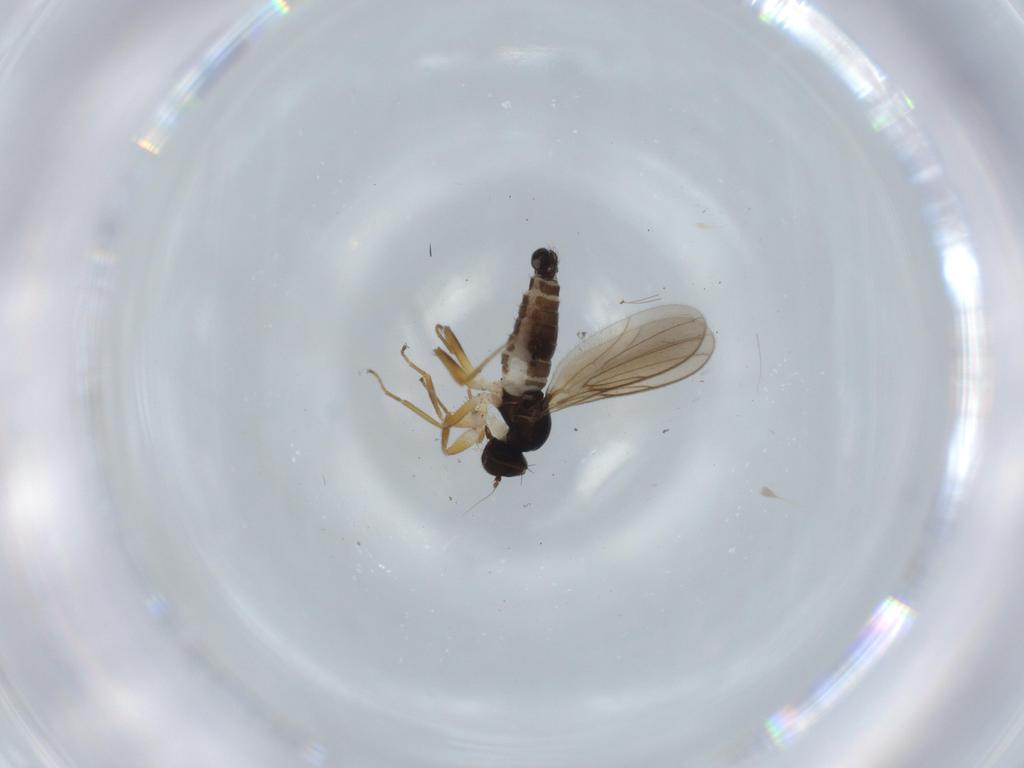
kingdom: Animalia
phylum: Arthropoda
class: Insecta
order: Diptera
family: Hybotidae
